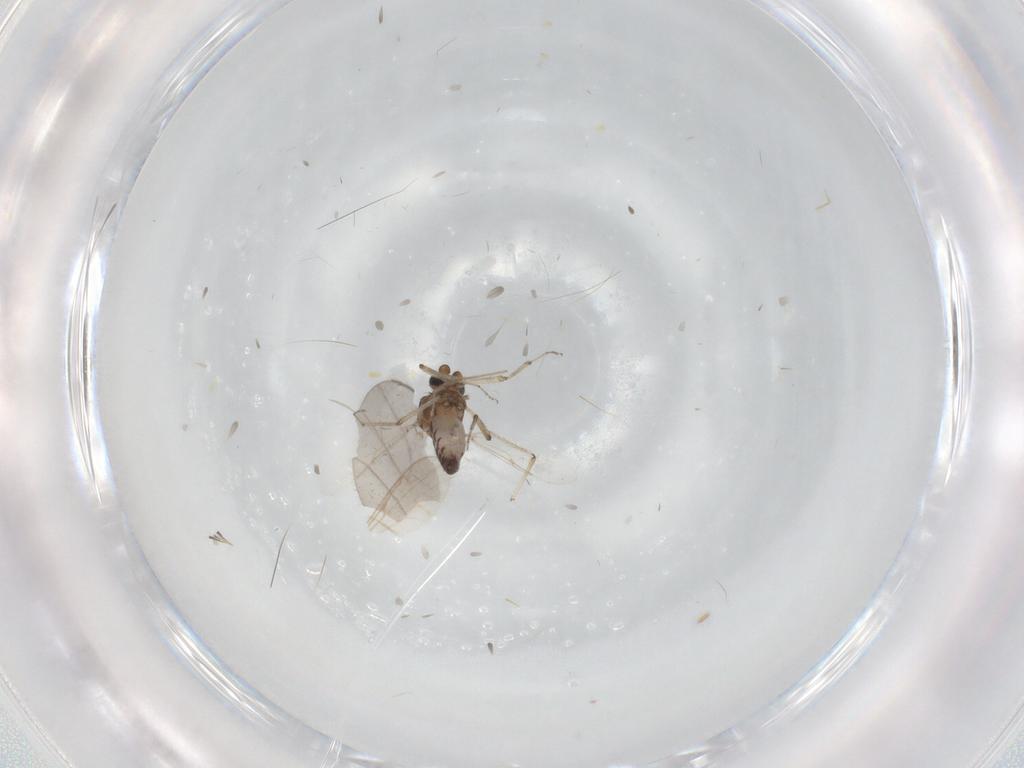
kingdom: Animalia
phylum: Arthropoda
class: Insecta
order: Diptera
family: Ceratopogonidae
